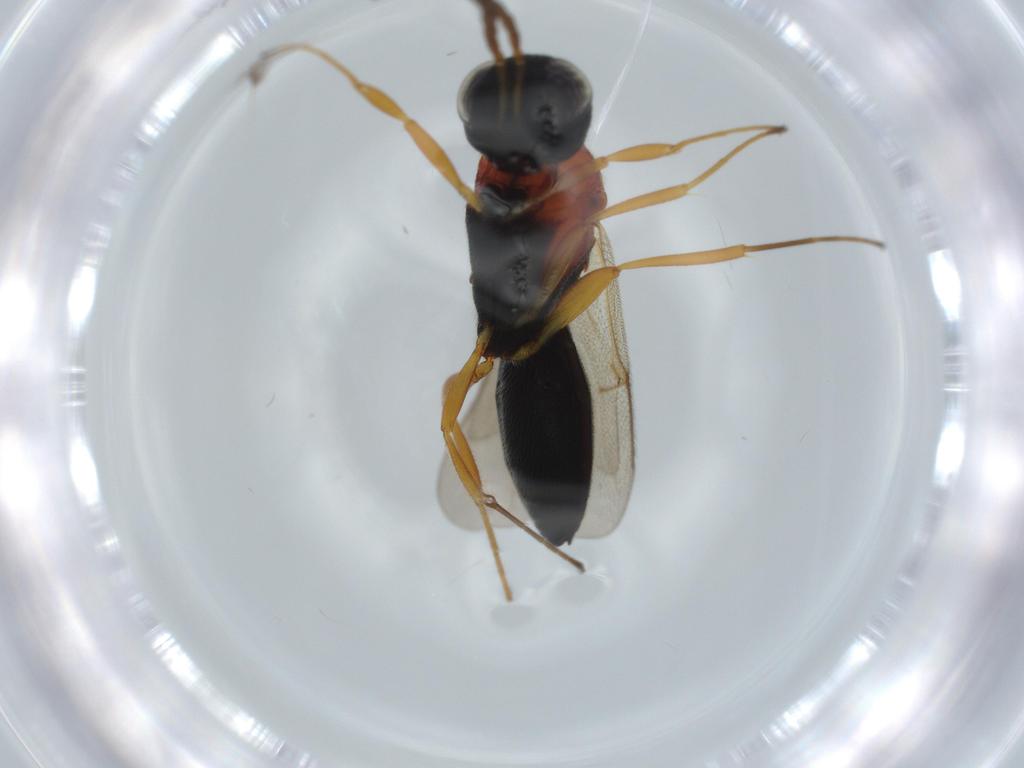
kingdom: Animalia
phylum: Arthropoda
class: Insecta
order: Hymenoptera
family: Scelionidae
